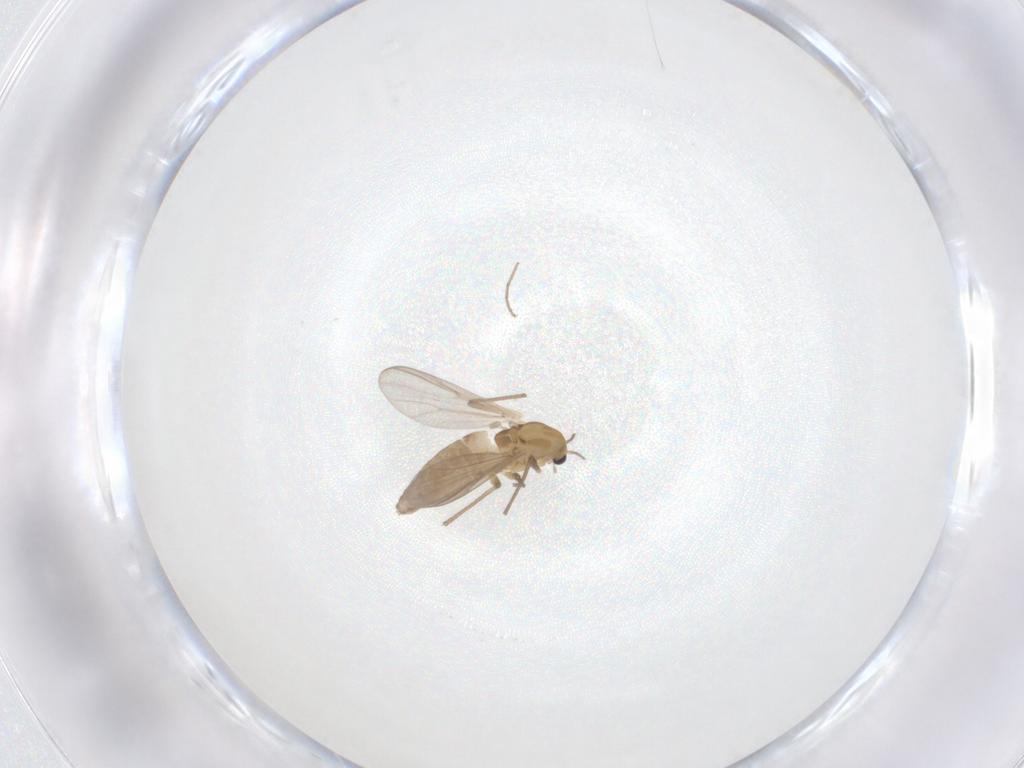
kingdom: Animalia
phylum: Arthropoda
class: Insecta
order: Diptera
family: Chironomidae
